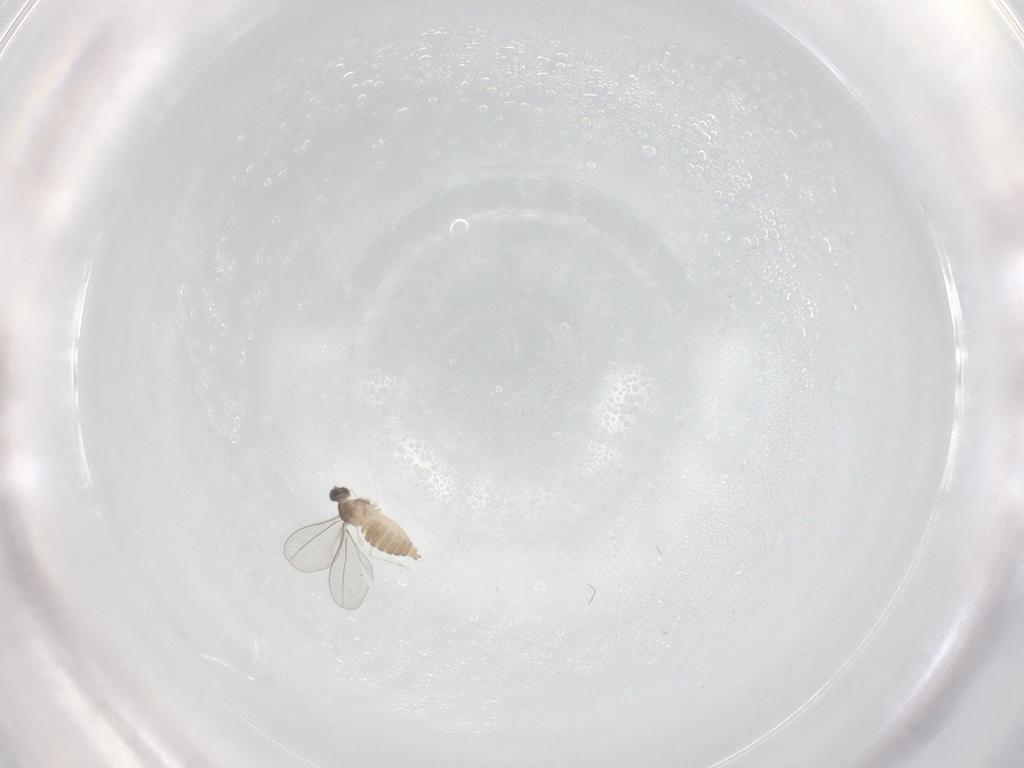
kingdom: Animalia
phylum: Arthropoda
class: Insecta
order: Diptera
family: Cecidomyiidae
